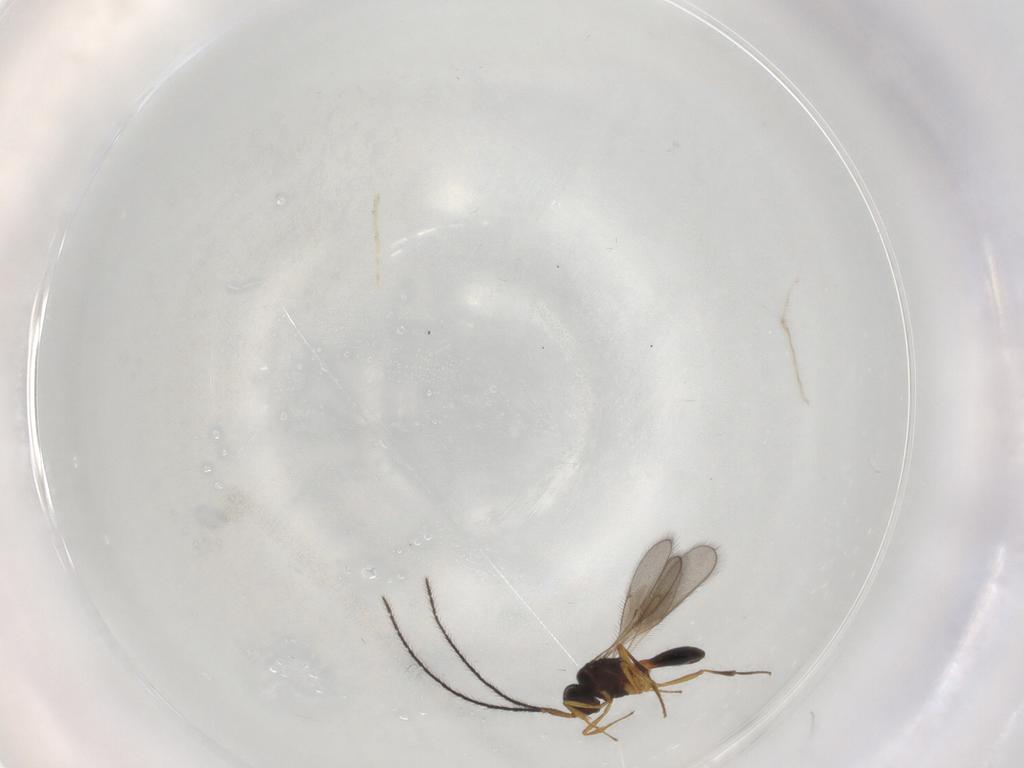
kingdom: Animalia
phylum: Arthropoda
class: Insecta
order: Hymenoptera
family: Scelionidae
